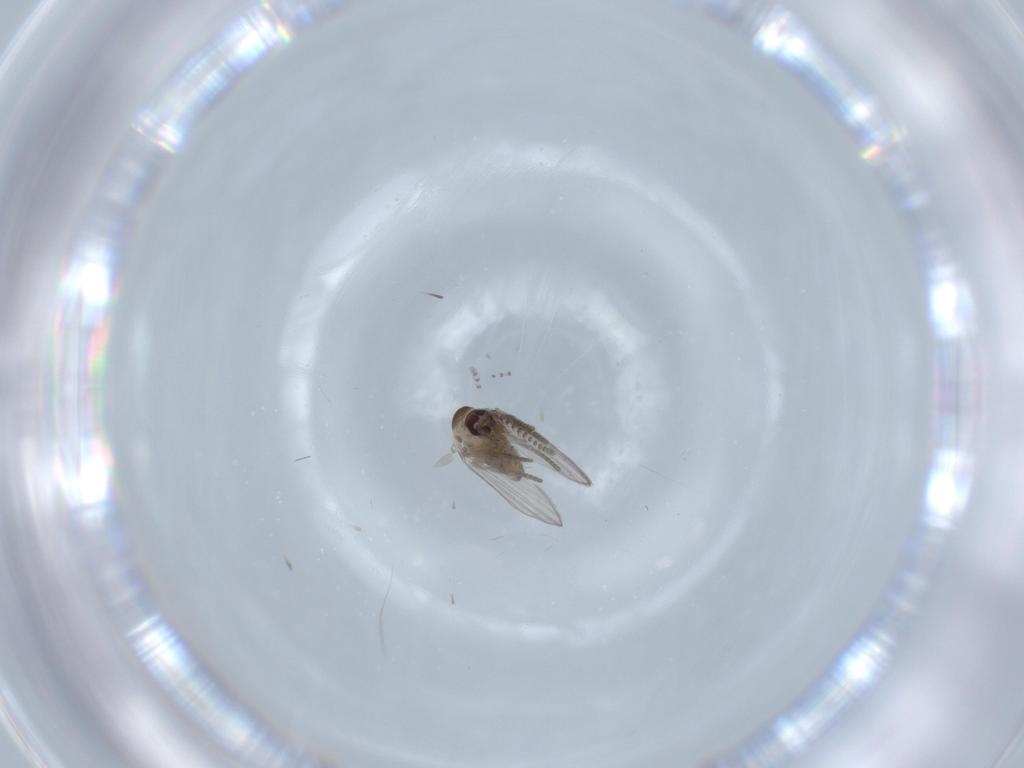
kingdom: Animalia
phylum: Arthropoda
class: Insecta
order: Diptera
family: Psychodidae
